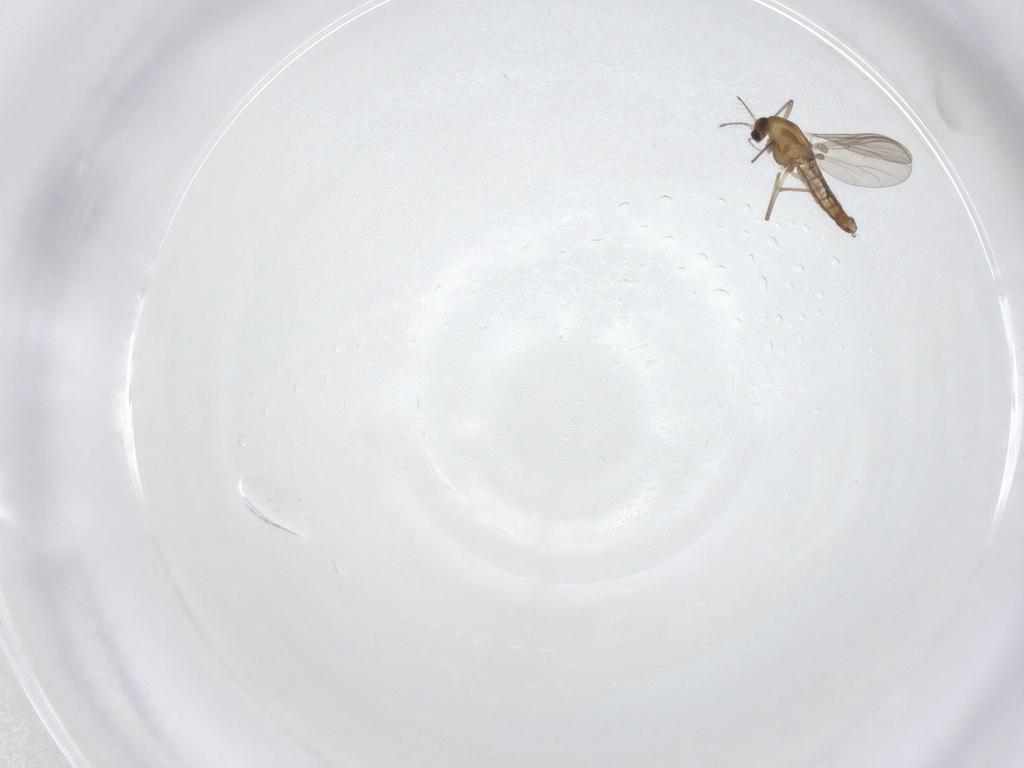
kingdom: Animalia
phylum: Arthropoda
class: Insecta
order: Diptera
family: Chironomidae
